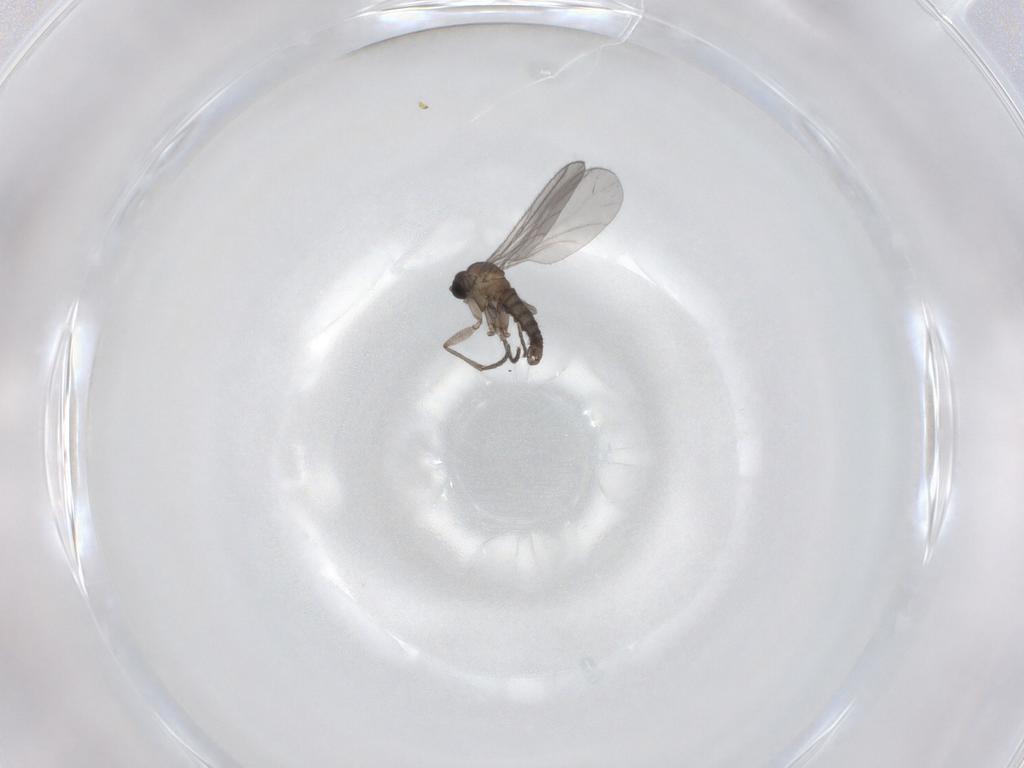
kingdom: Animalia
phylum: Arthropoda
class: Insecta
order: Diptera
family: Sciaridae
